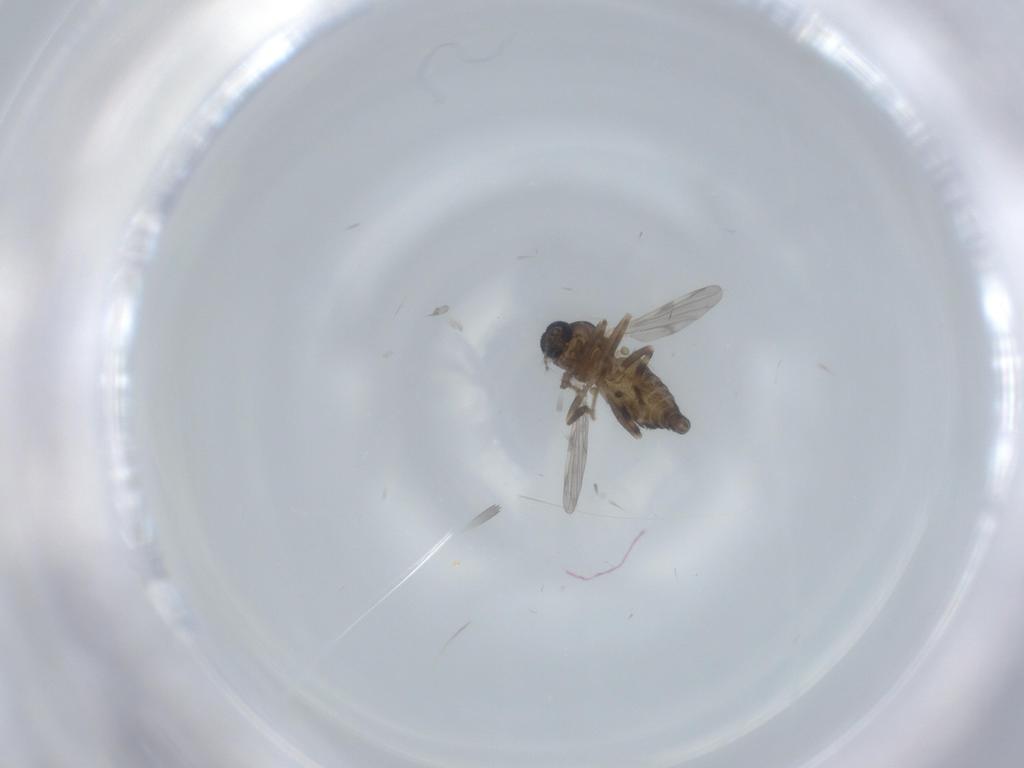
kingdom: Animalia
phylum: Arthropoda
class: Insecta
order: Diptera
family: Ceratopogonidae
